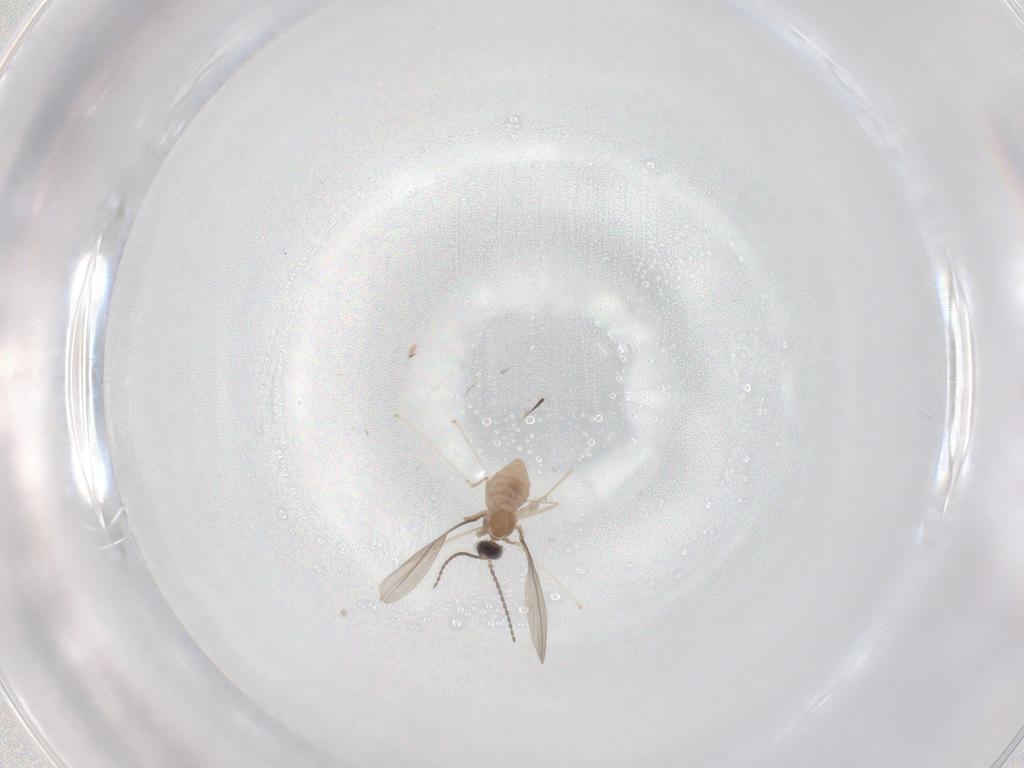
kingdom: Animalia
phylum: Arthropoda
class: Insecta
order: Diptera
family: Cecidomyiidae
